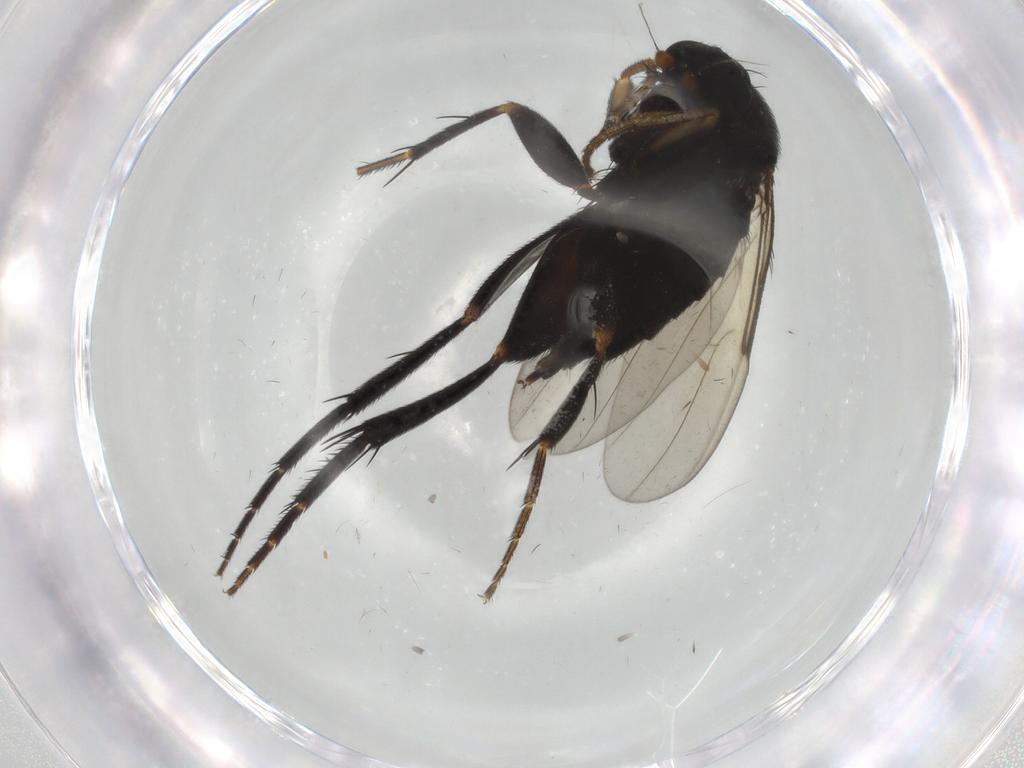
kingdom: Animalia
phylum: Arthropoda
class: Insecta
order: Diptera
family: Phoridae
